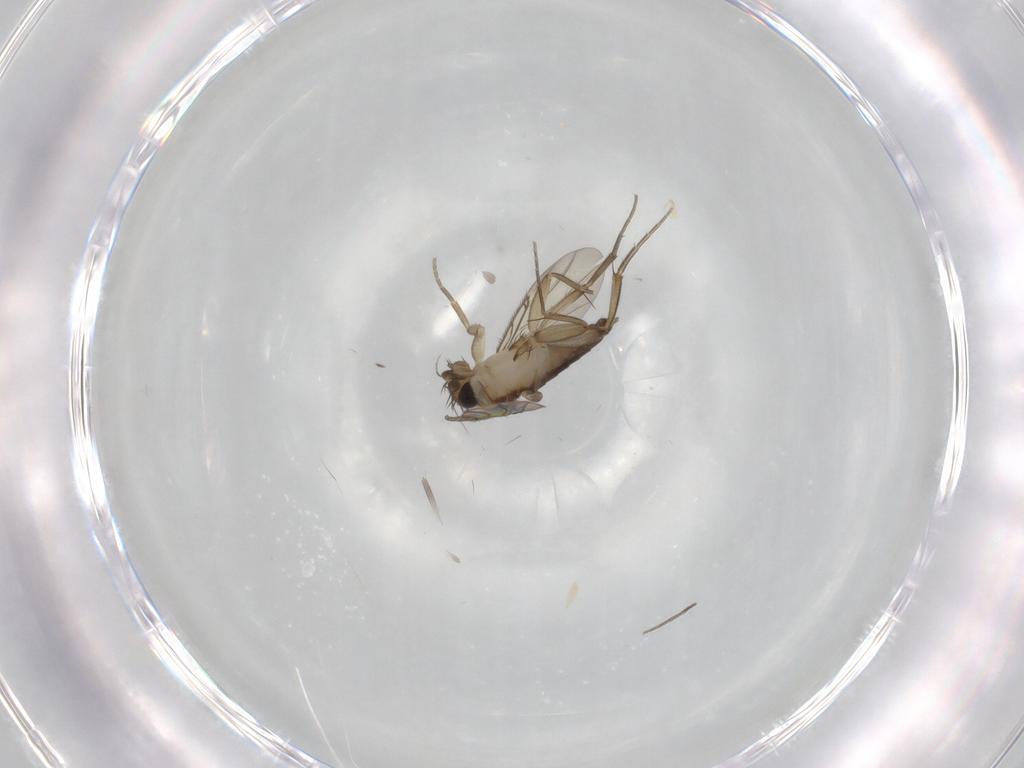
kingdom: Animalia
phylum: Arthropoda
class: Insecta
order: Diptera
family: Phoridae
